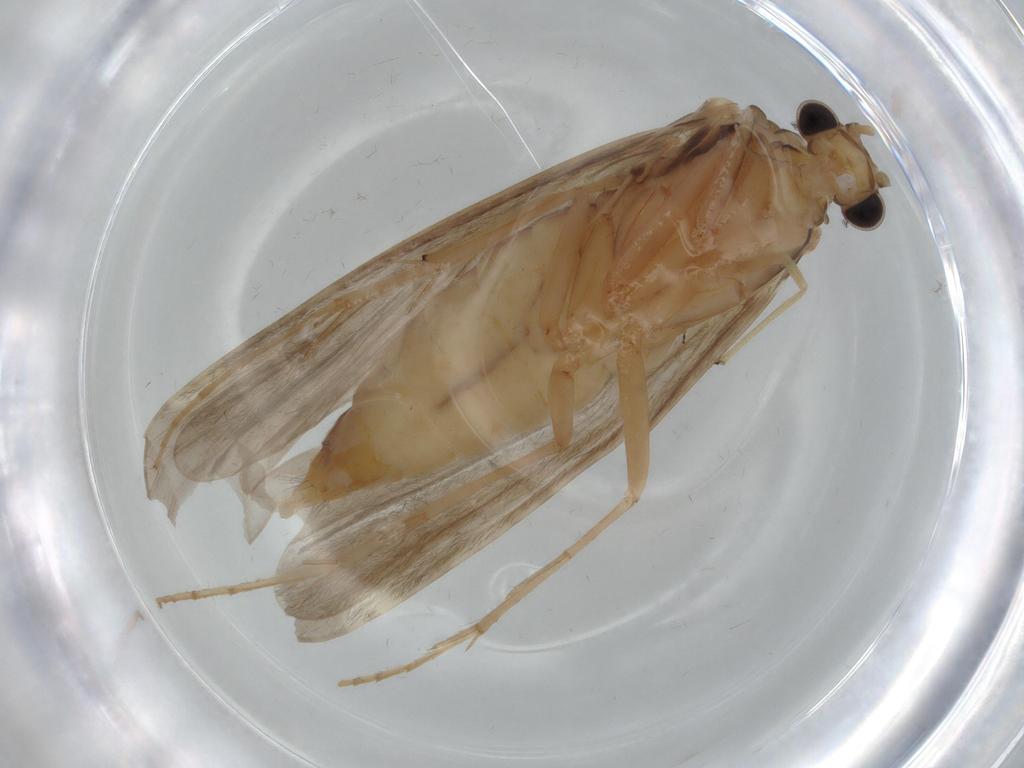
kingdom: Animalia
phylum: Arthropoda
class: Insecta
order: Trichoptera
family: Ecnomidae
